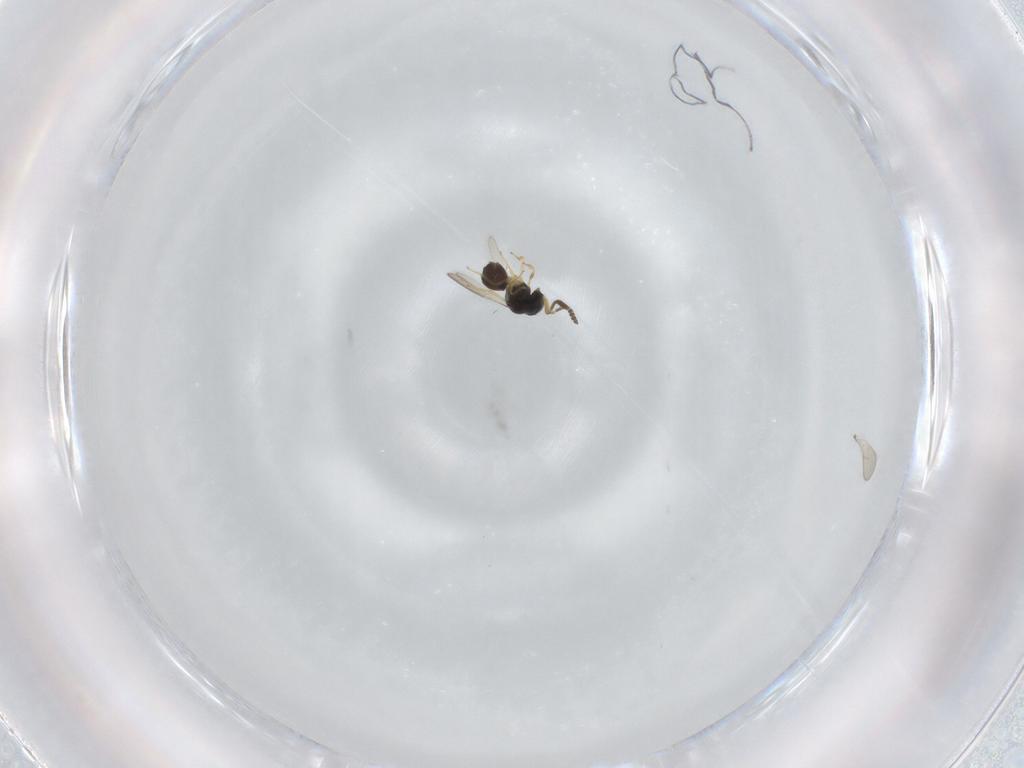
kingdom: Animalia
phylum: Arthropoda
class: Insecta
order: Hymenoptera
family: Scelionidae
